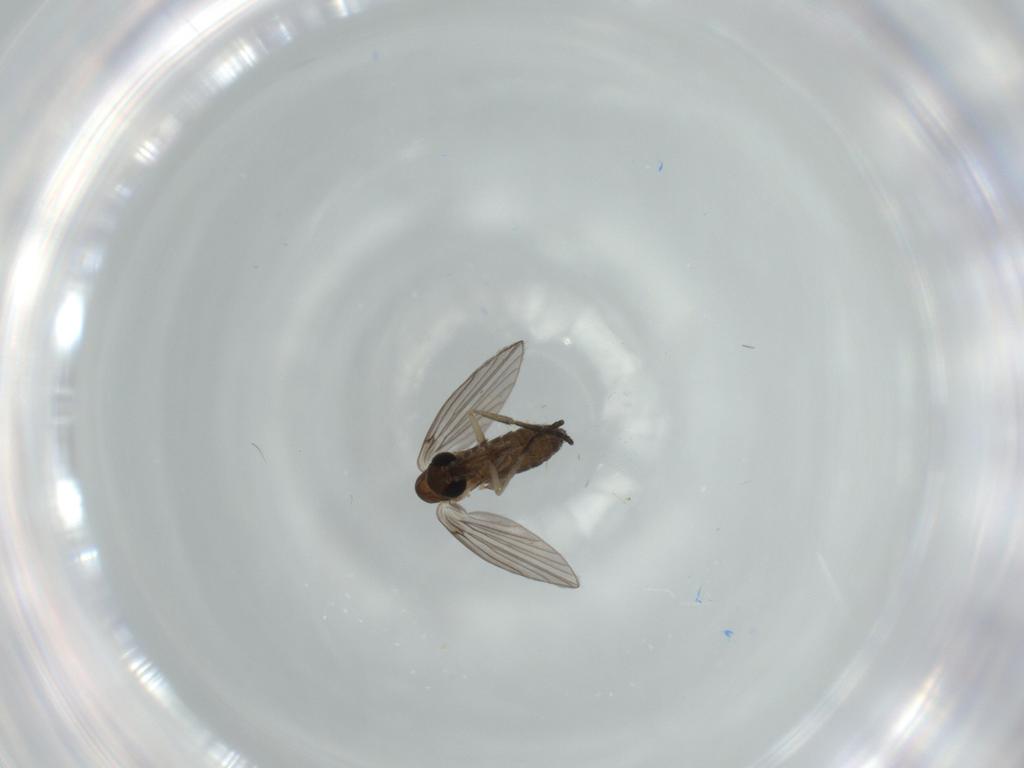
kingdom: Animalia
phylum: Arthropoda
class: Insecta
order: Diptera
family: Psychodidae
